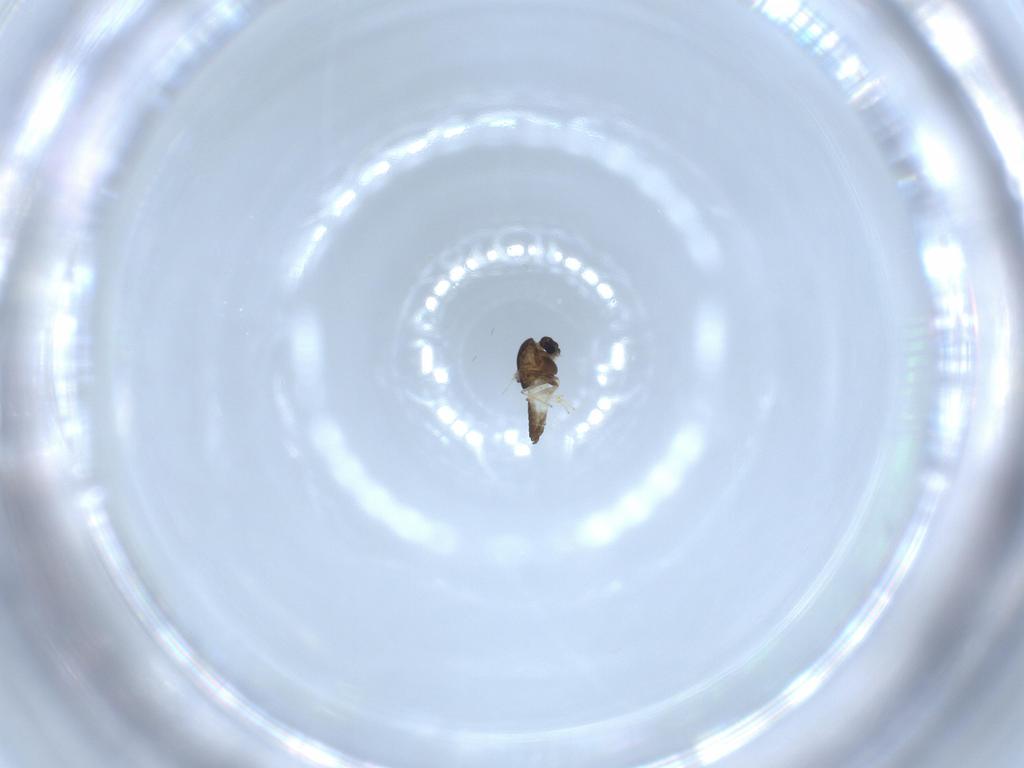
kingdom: Animalia
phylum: Arthropoda
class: Insecta
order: Diptera
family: Chironomidae
